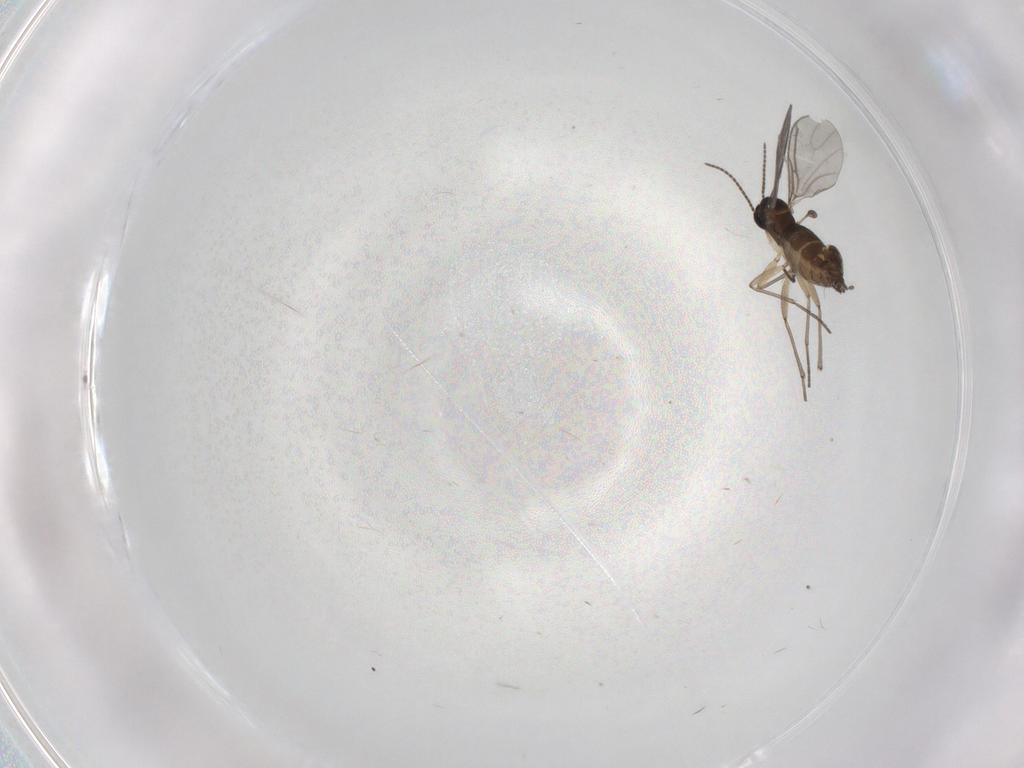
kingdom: Animalia
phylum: Arthropoda
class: Insecta
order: Diptera
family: Sciaridae
